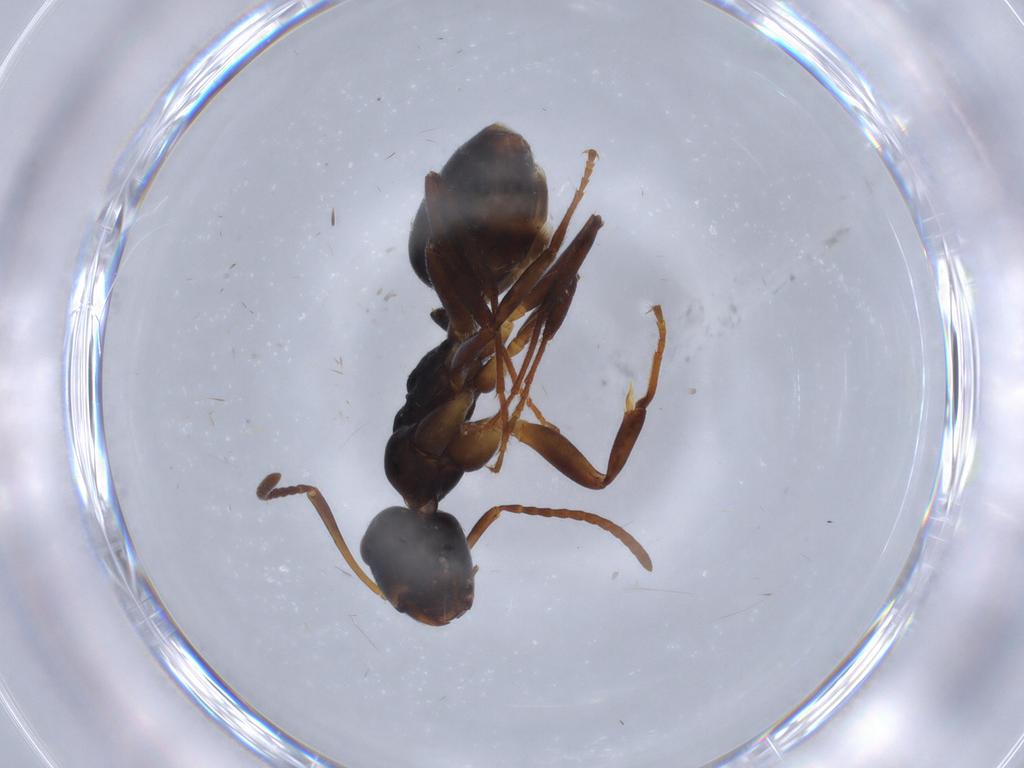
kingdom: Animalia
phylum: Arthropoda
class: Insecta
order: Hymenoptera
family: Formicidae
